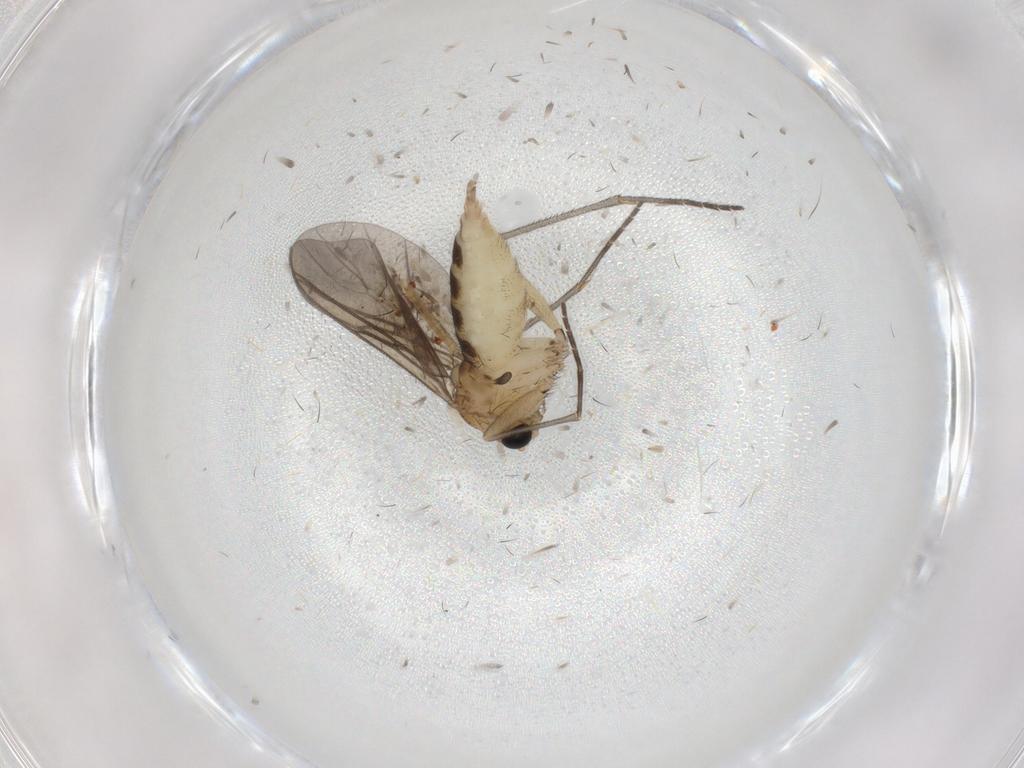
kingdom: Animalia
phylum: Arthropoda
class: Insecta
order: Diptera
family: Sciaridae
